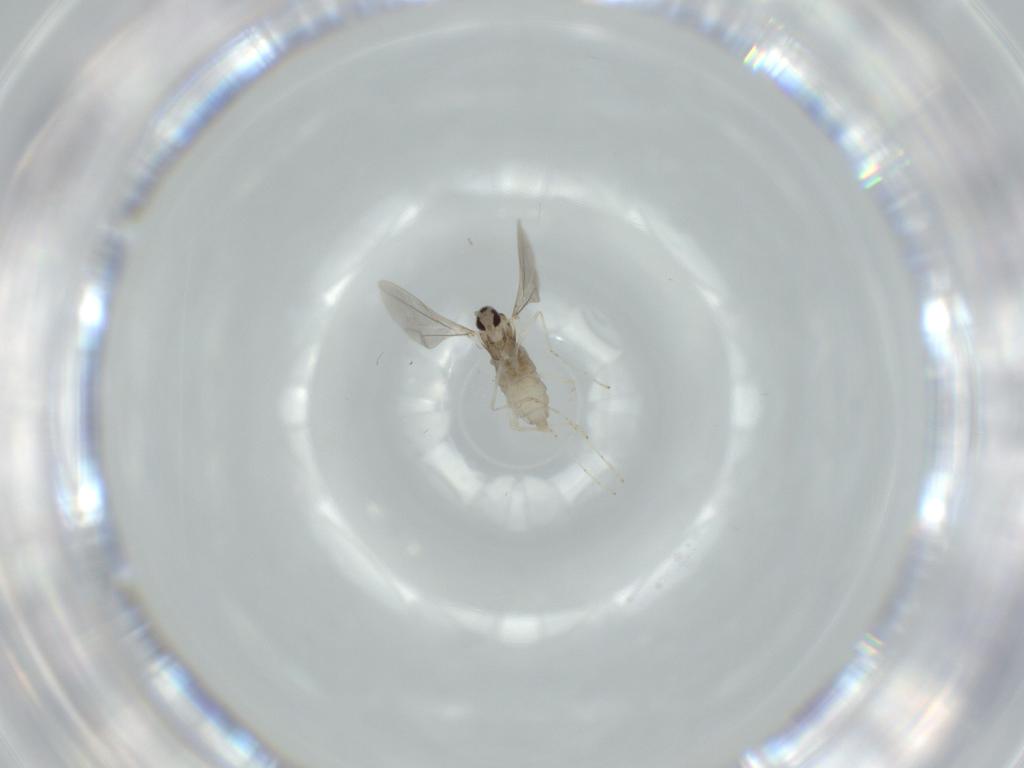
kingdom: Animalia
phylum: Arthropoda
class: Insecta
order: Diptera
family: Cecidomyiidae
